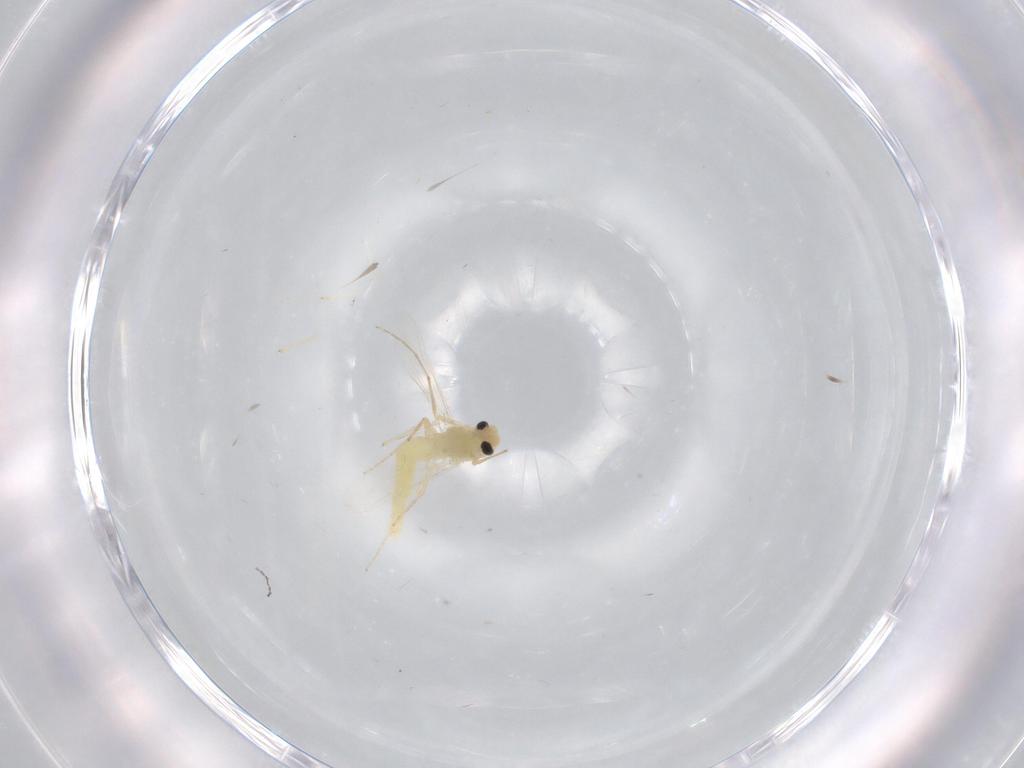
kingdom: Animalia
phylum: Arthropoda
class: Insecta
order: Diptera
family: Chironomidae
